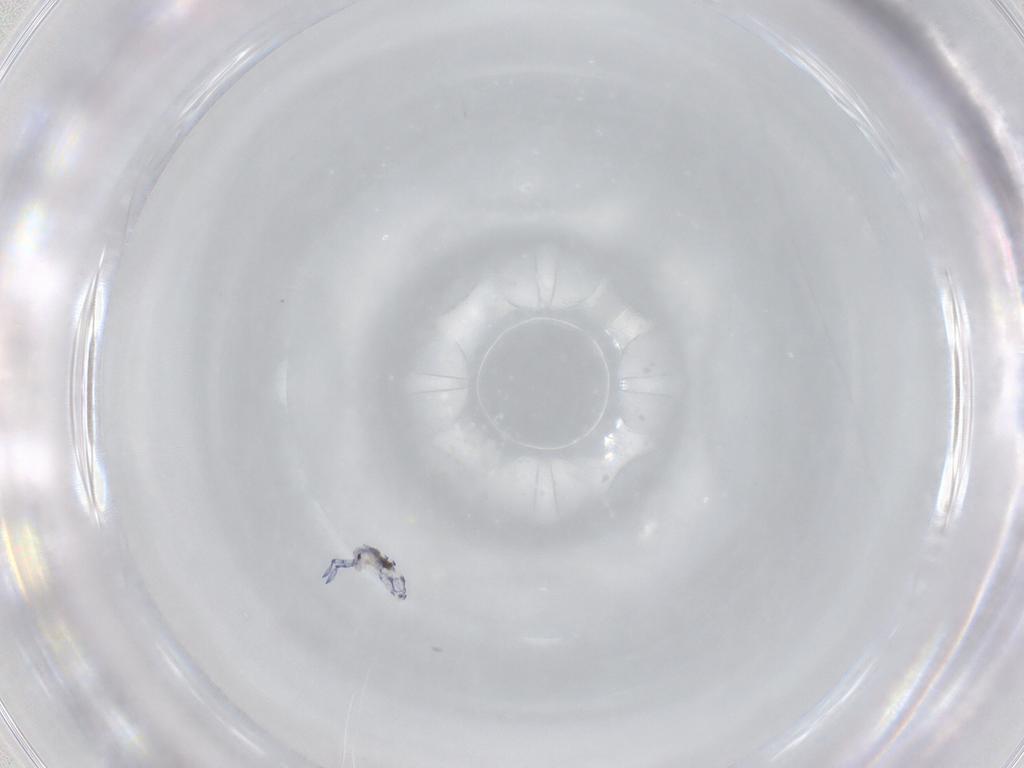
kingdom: Animalia
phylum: Arthropoda
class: Collembola
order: Entomobryomorpha
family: Entomobryidae
